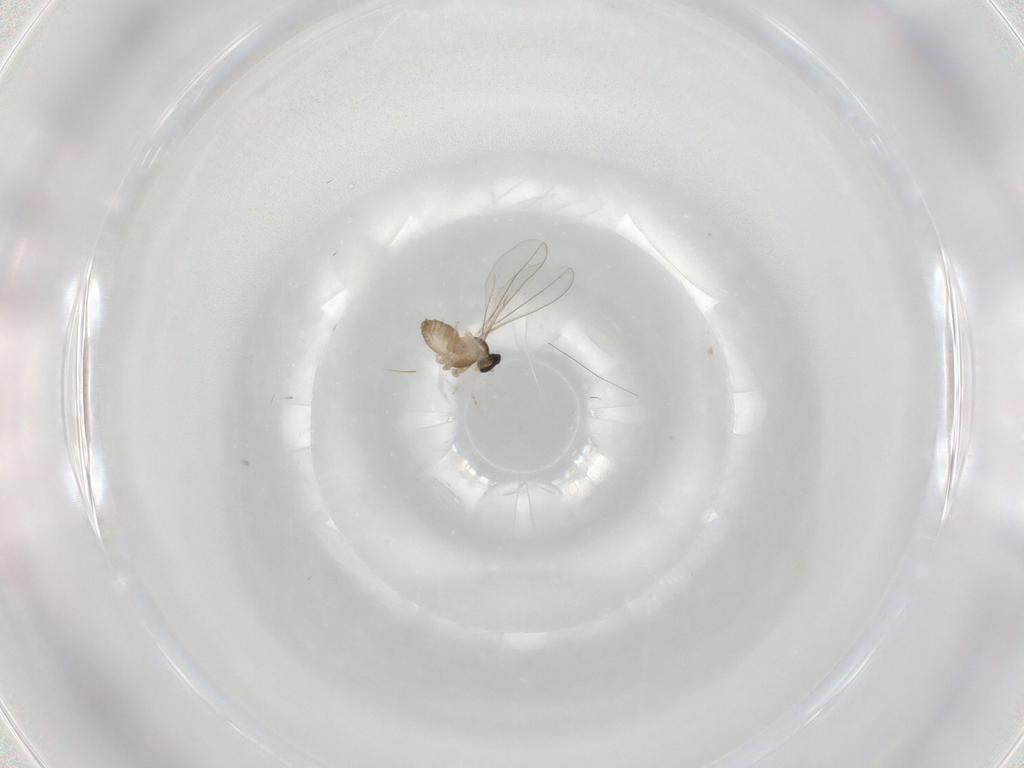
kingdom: Animalia
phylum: Arthropoda
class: Insecta
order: Diptera
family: Cecidomyiidae
